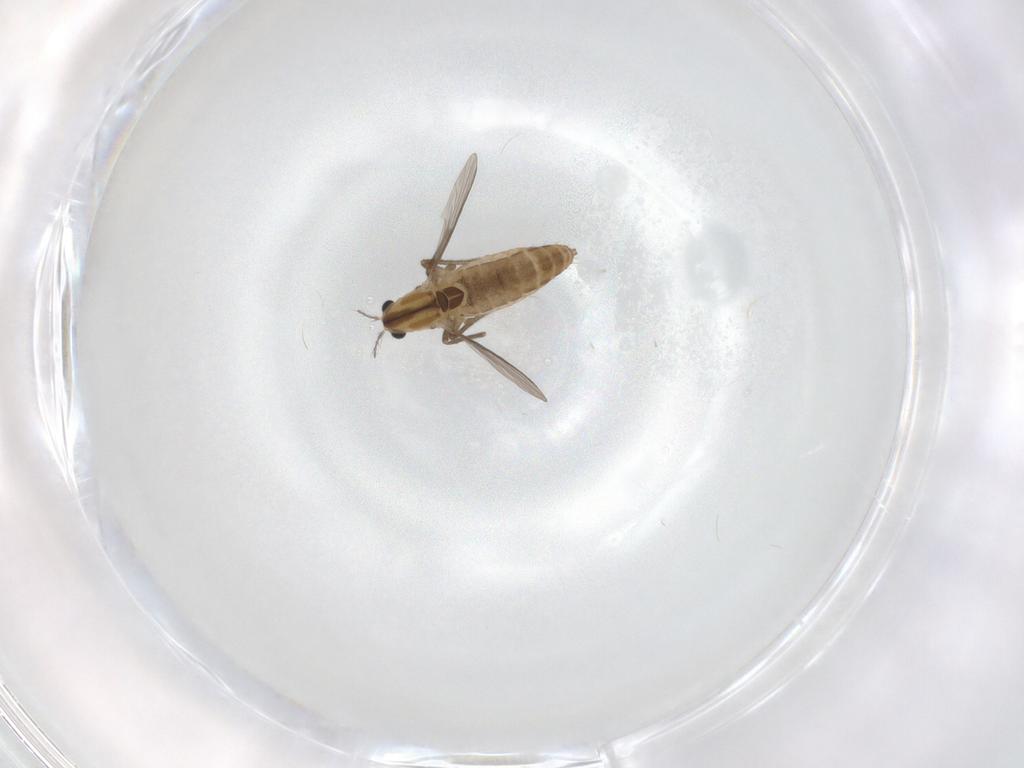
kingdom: Animalia
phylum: Arthropoda
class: Insecta
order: Diptera
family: Chironomidae
